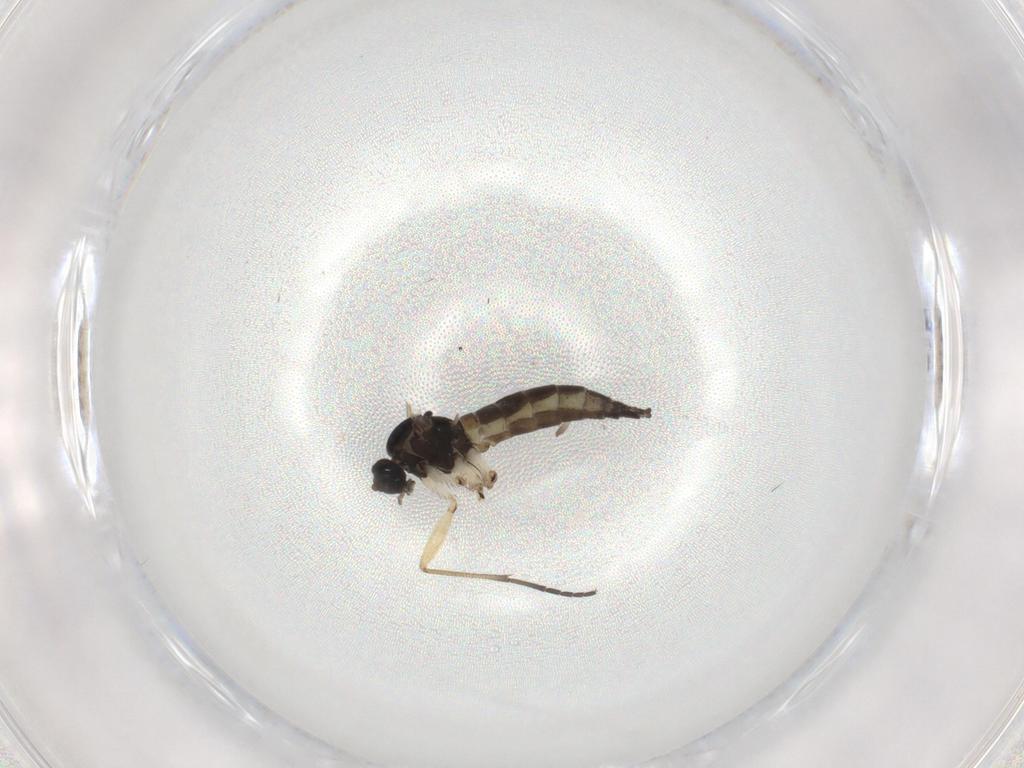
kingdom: Animalia
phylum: Arthropoda
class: Insecta
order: Diptera
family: Sciaridae
